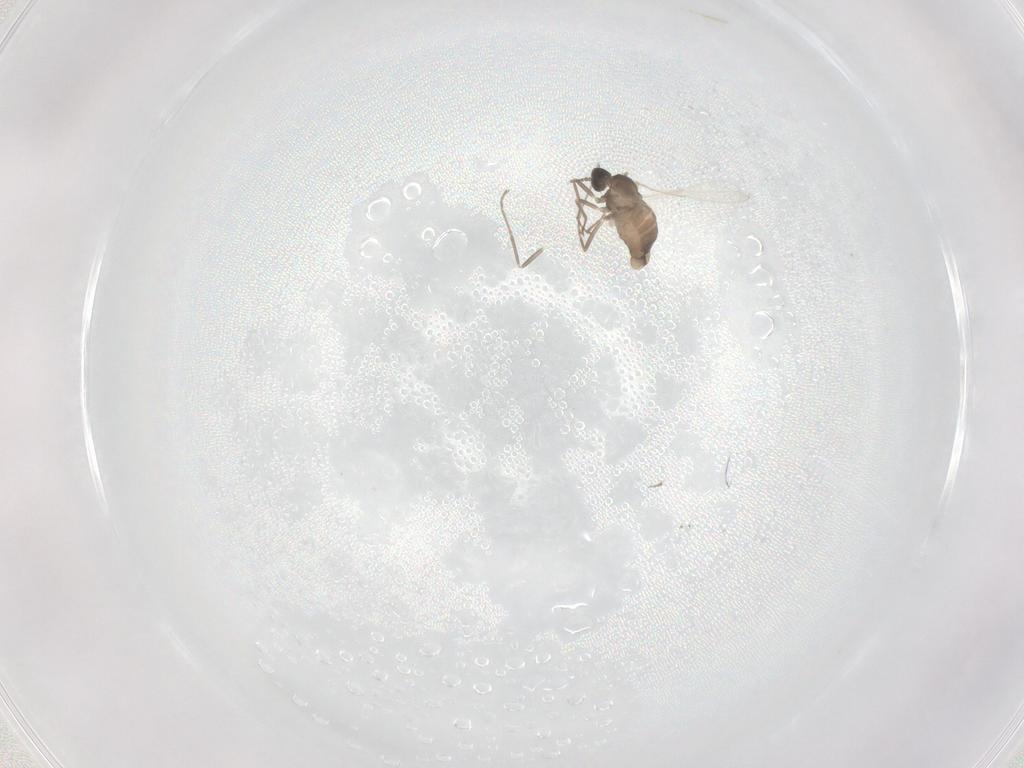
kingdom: Animalia
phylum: Arthropoda
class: Insecta
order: Diptera
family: Cecidomyiidae
